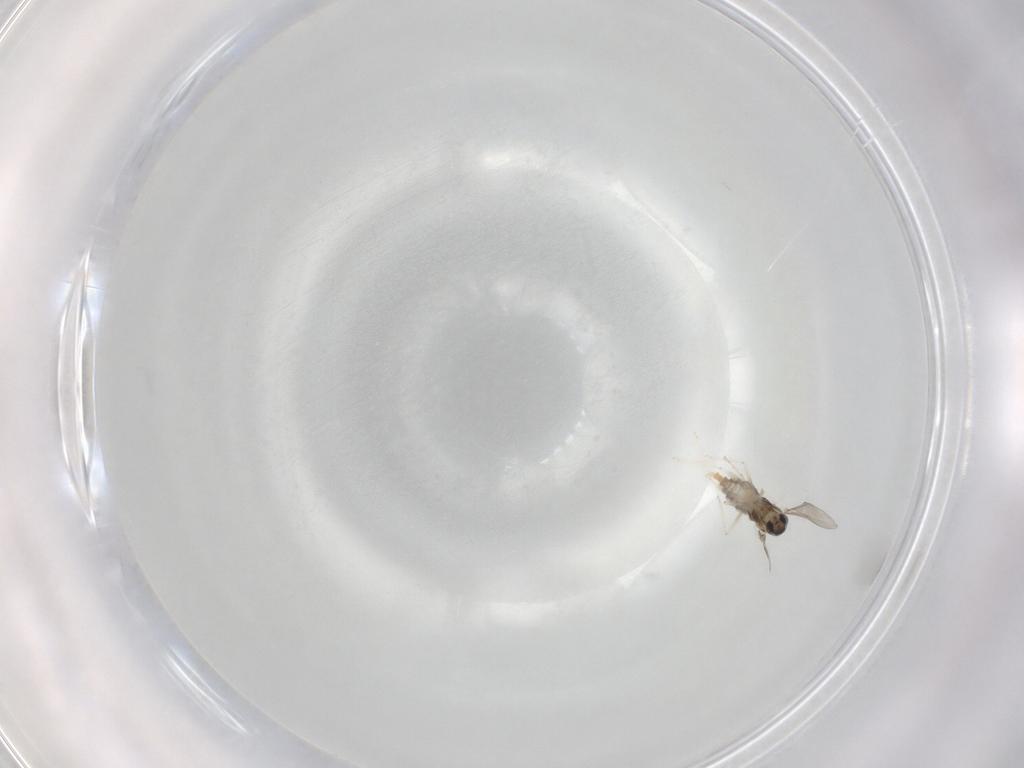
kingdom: Animalia
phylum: Arthropoda
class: Insecta
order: Diptera
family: Cecidomyiidae
